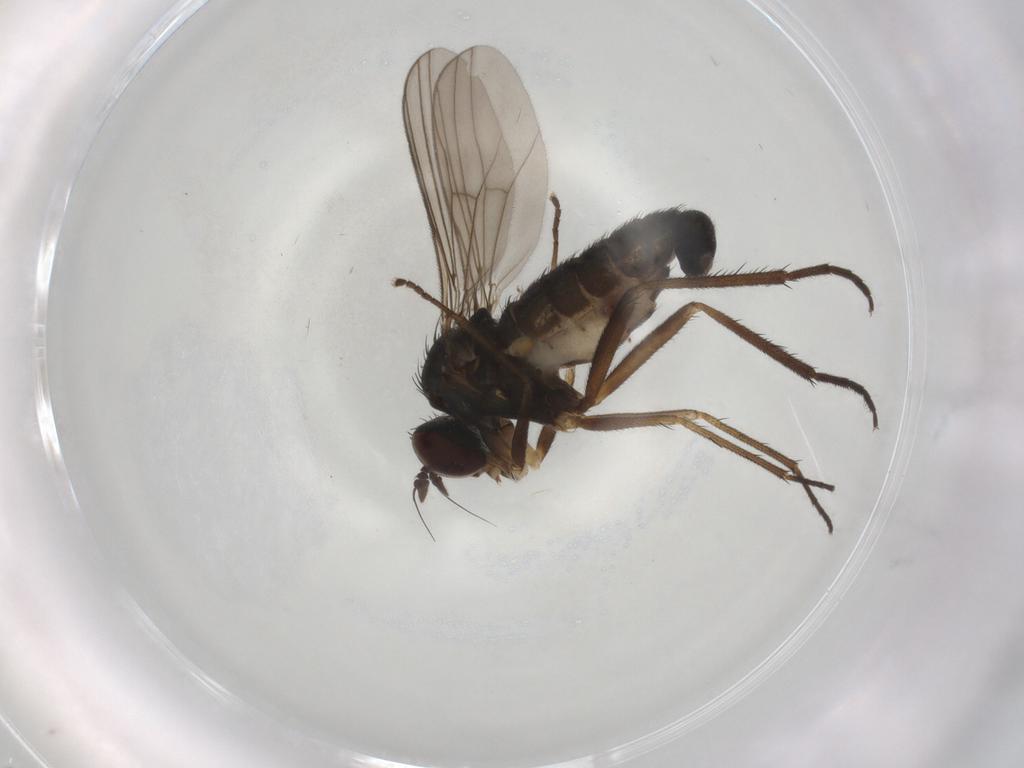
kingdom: Animalia
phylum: Arthropoda
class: Insecta
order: Diptera
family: Dolichopodidae
